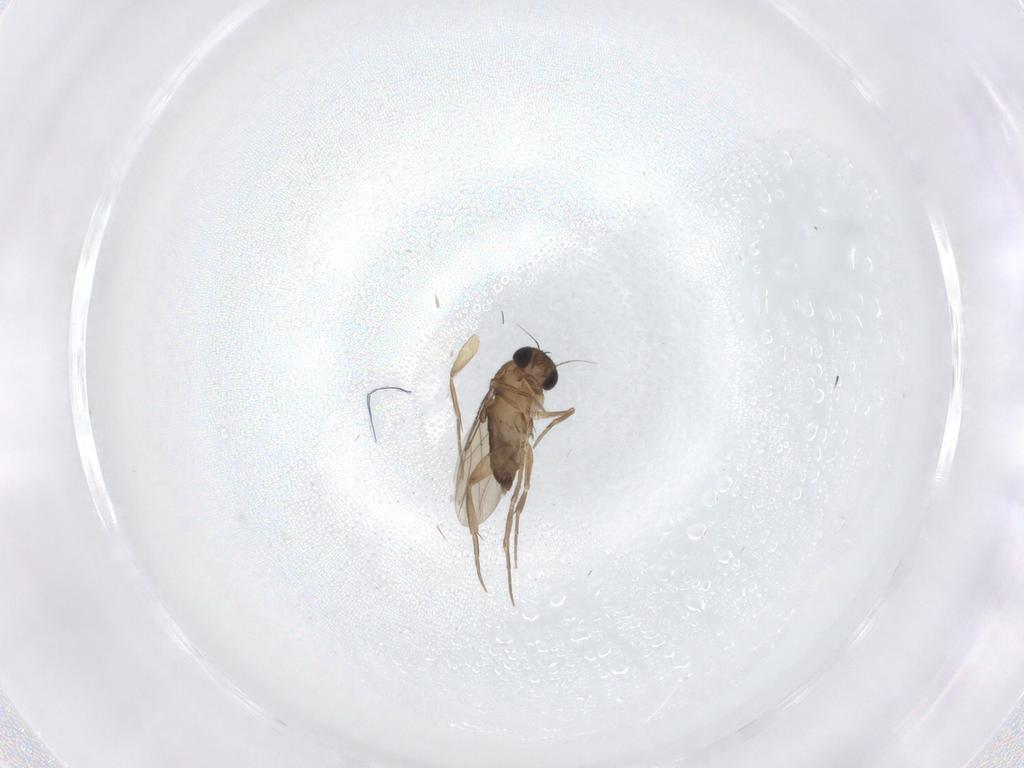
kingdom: Animalia
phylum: Arthropoda
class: Insecta
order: Diptera
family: Phoridae
